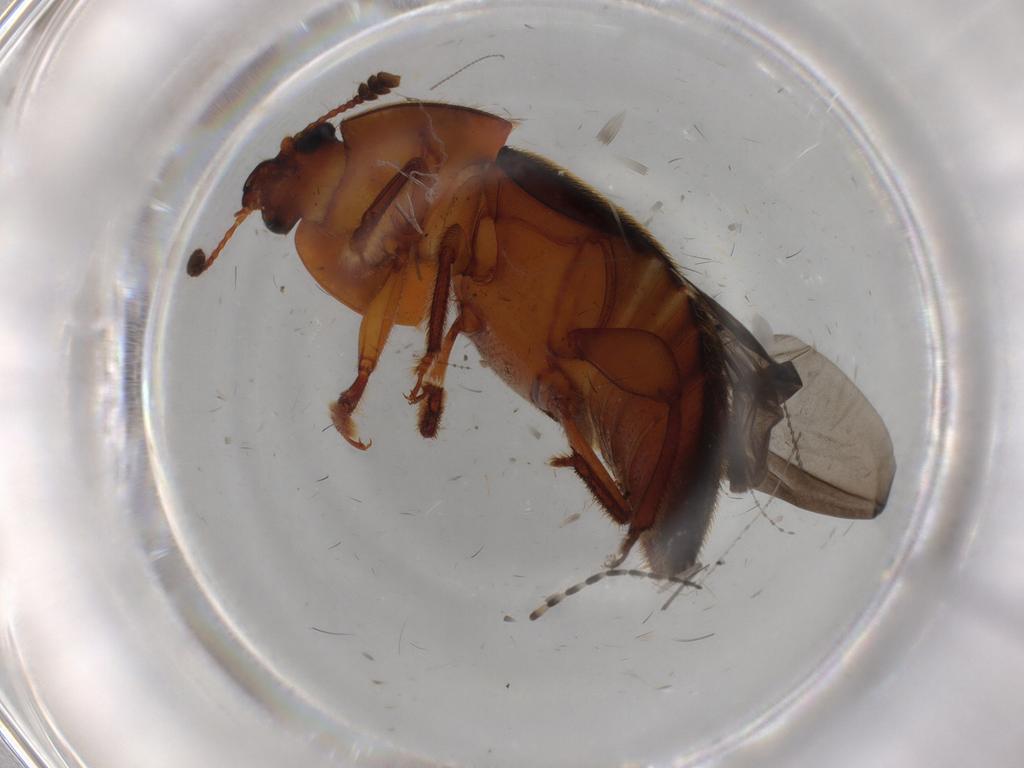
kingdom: Animalia
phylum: Arthropoda
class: Insecta
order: Coleoptera
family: Nitidulidae
